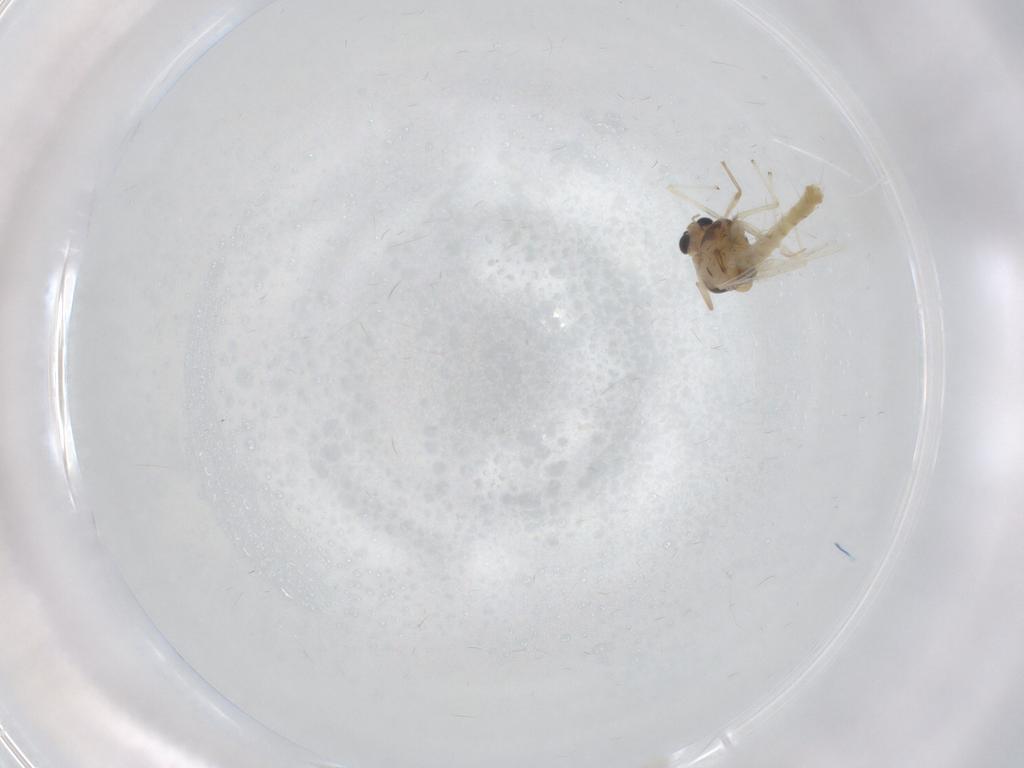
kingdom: Animalia
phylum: Arthropoda
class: Insecta
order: Diptera
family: Chironomidae
